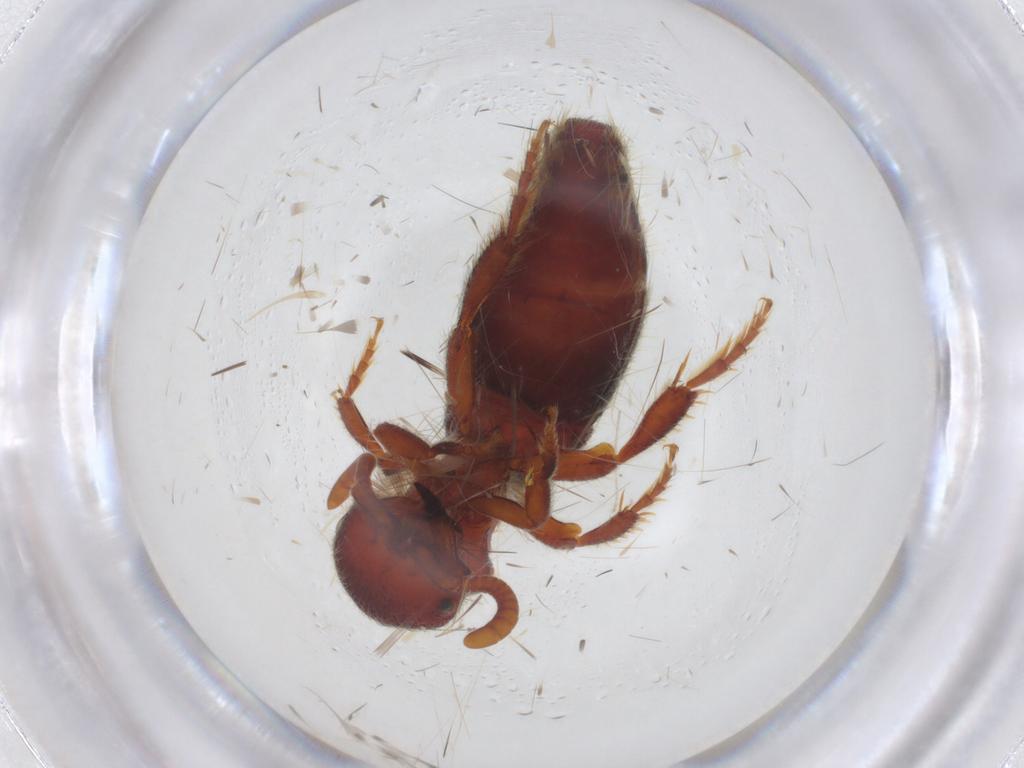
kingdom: Animalia
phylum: Arthropoda
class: Insecta
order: Hymenoptera
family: Mutillidae
